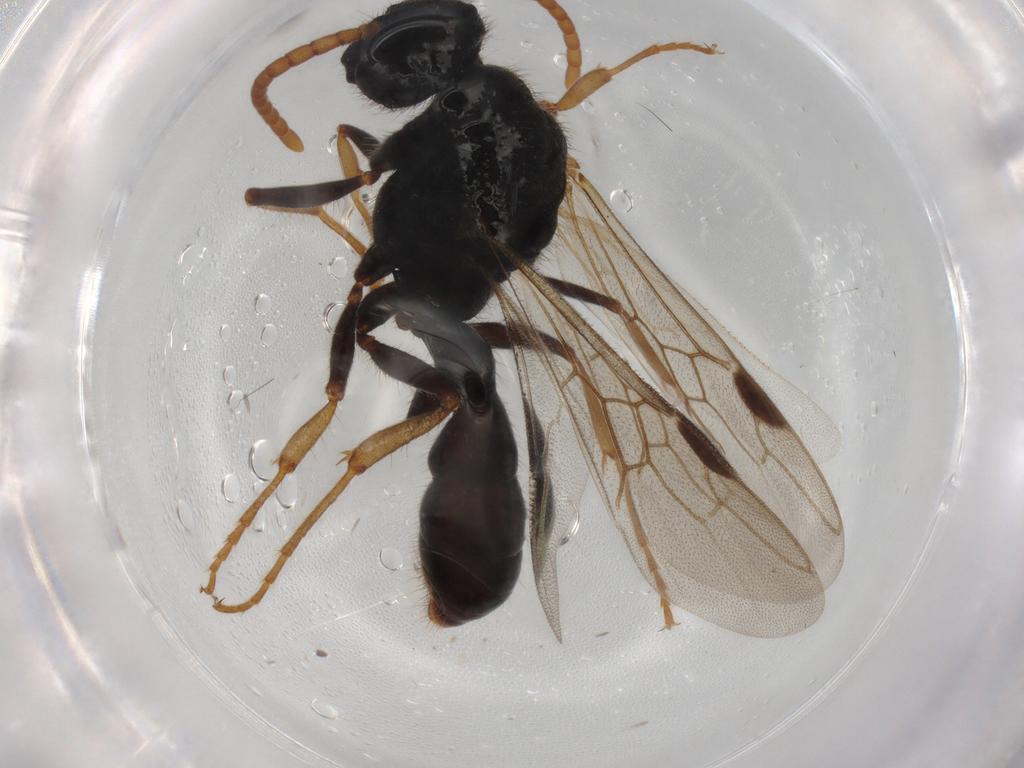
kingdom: Animalia
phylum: Arthropoda
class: Insecta
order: Hymenoptera
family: Formicidae
